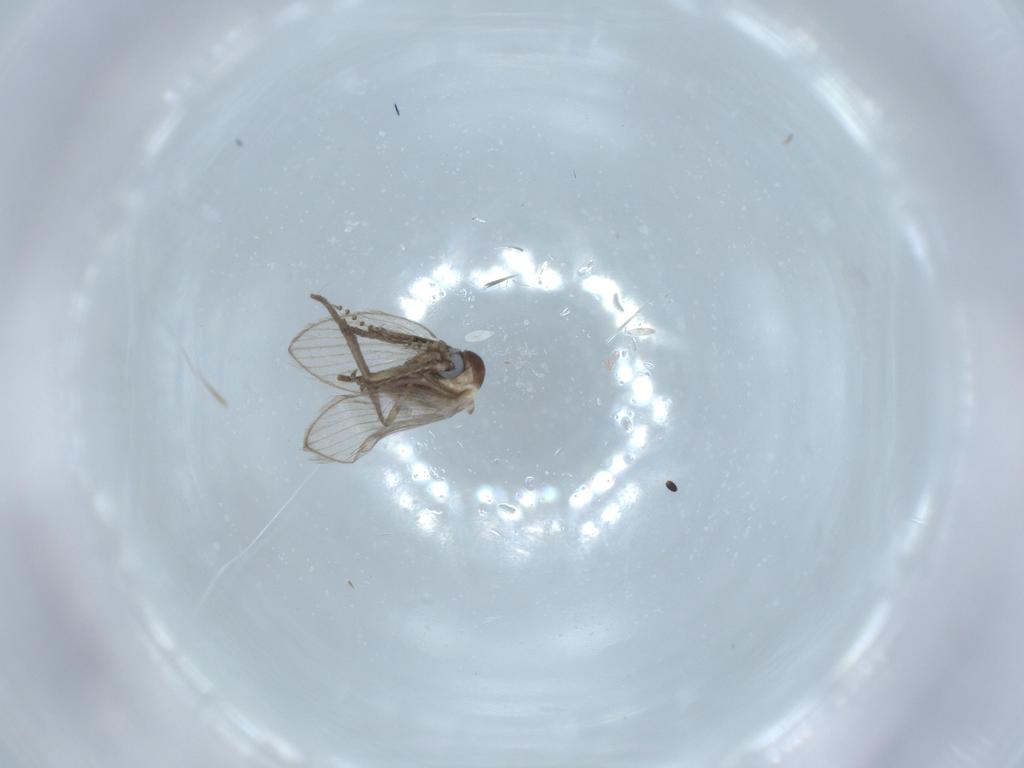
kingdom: Animalia
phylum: Arthropoda
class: Insecta
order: Diptera
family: Psychodidae
